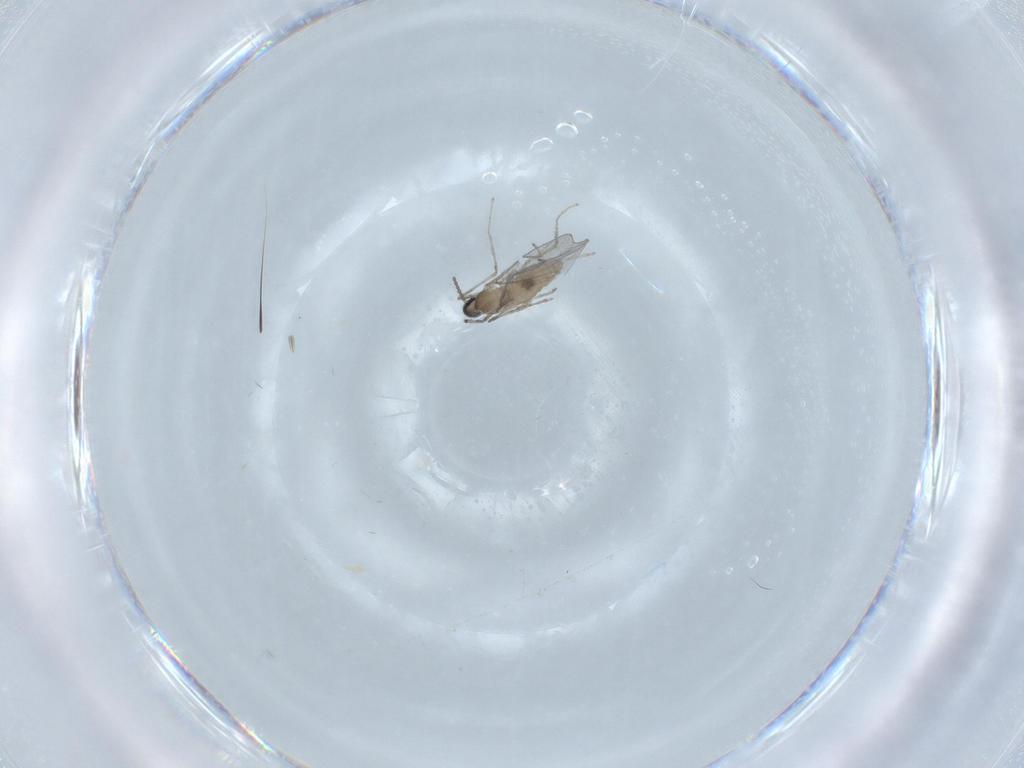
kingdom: Animalia
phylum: Arthropoda
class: Insecta
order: Diptera
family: Cecidomyiidae
